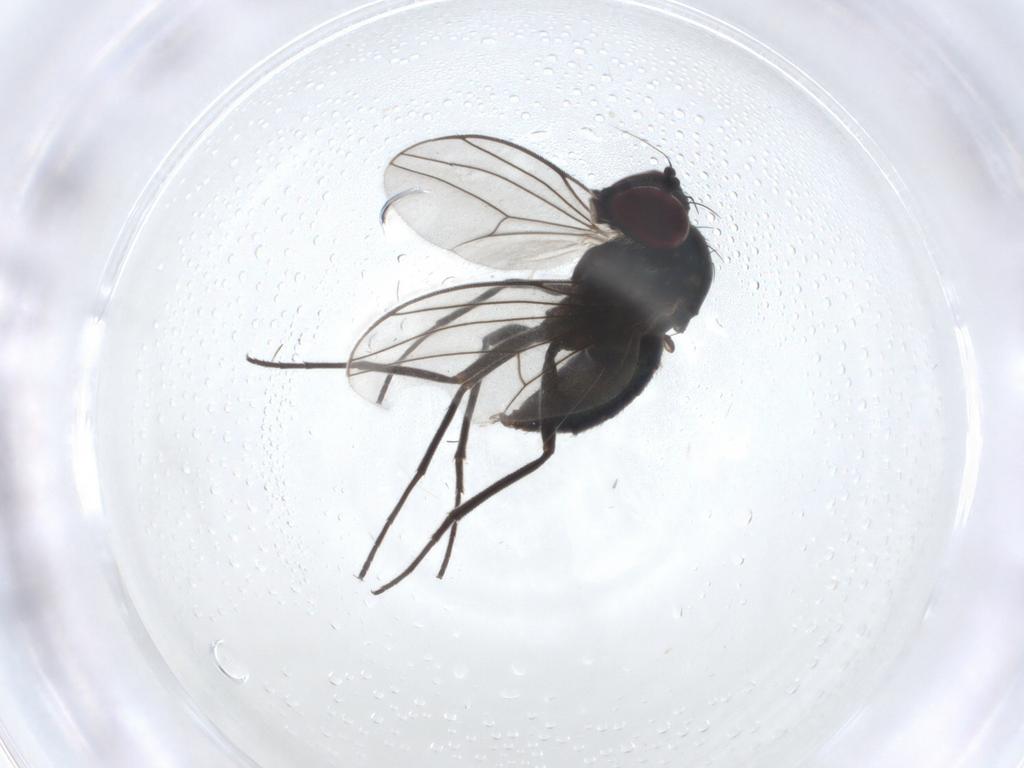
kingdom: Animalia
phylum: Arthropoda
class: Insecta
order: Diptera
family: Dolichopodidae
